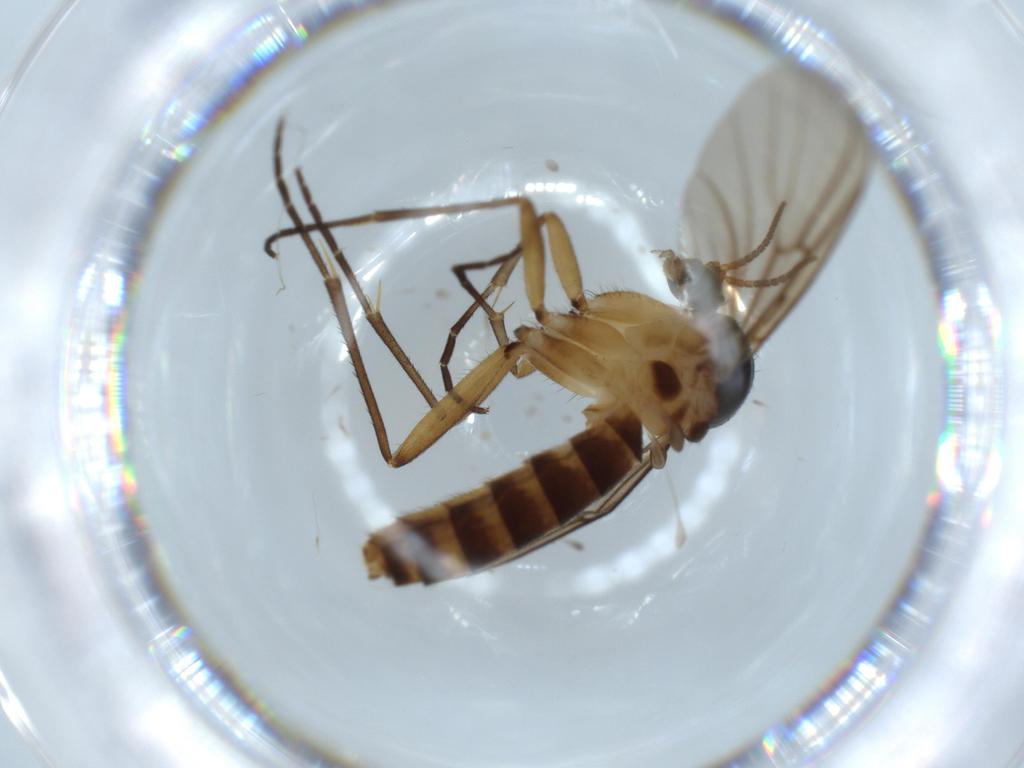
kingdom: Animalia
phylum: Arthropoda
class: Insecta
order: Diptera
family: Mycetophilidae
